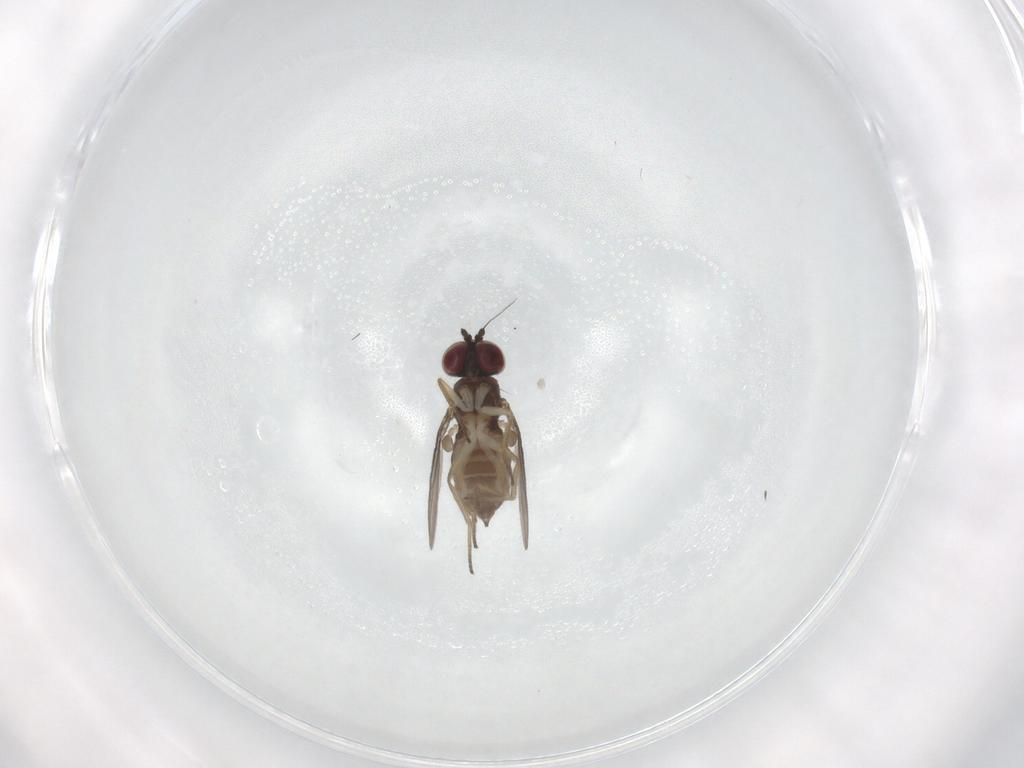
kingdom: Animalia
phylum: Arthropoda
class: Insecta
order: Diptera
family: Dolichopodidae
